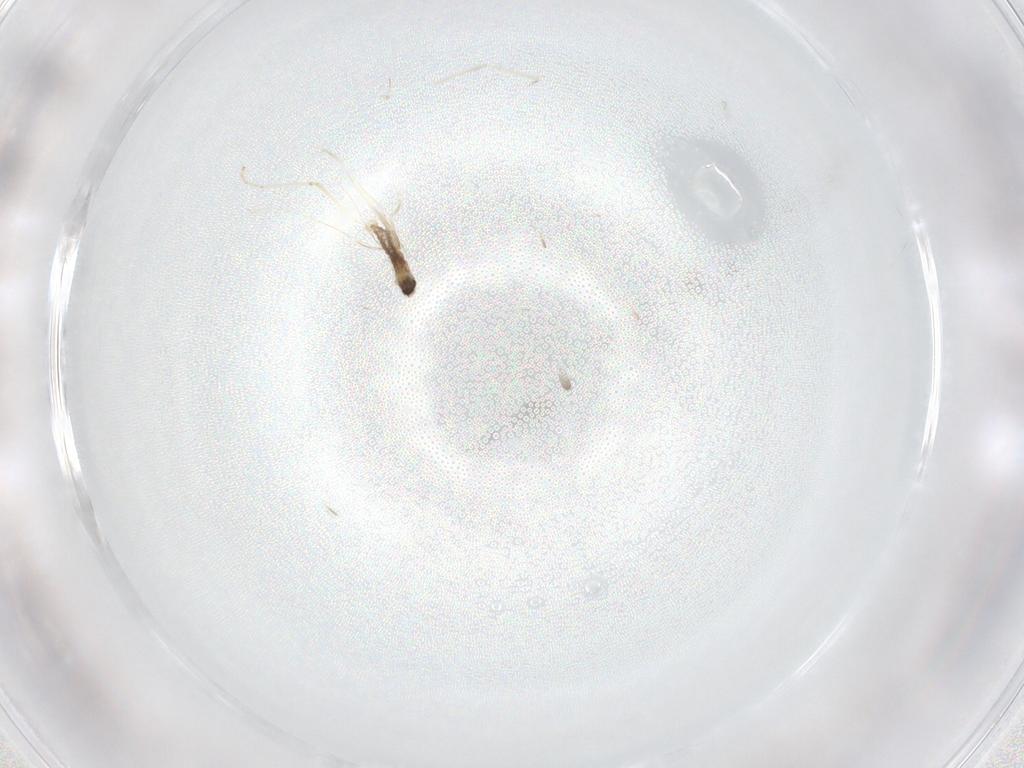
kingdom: Animalia
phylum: Arthropoda
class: Insecta
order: Diptera
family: Cecidomyiidae
